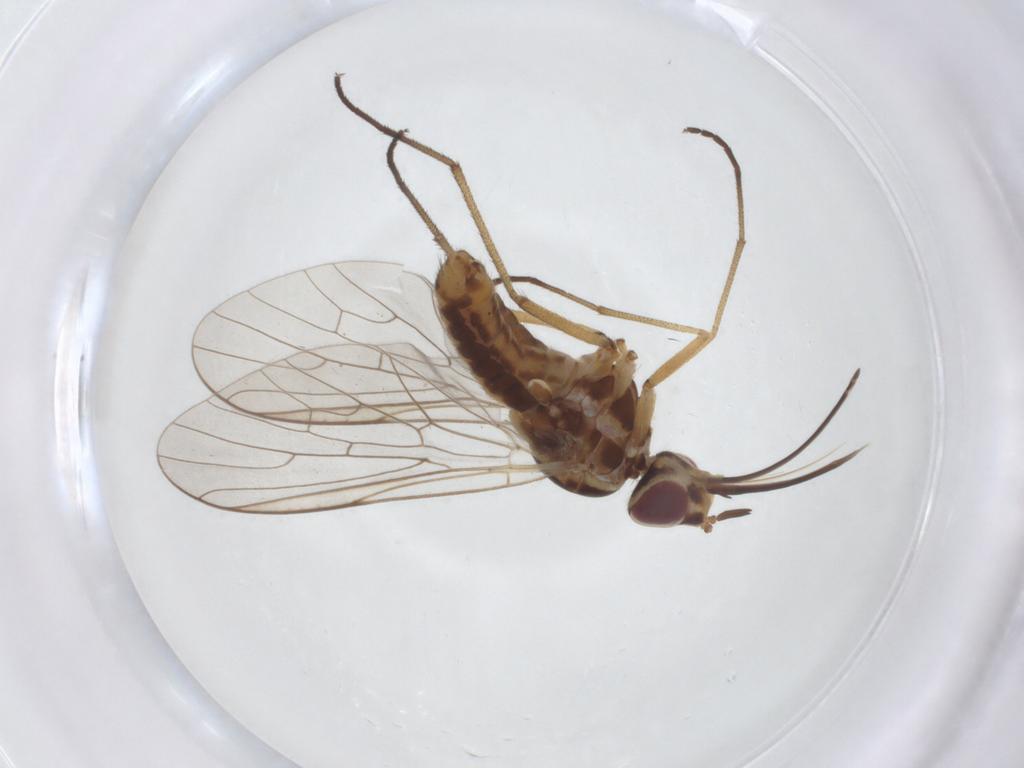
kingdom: Animalia
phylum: Arthropoda
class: Insecta
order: Diptera
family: Bombyliidae
